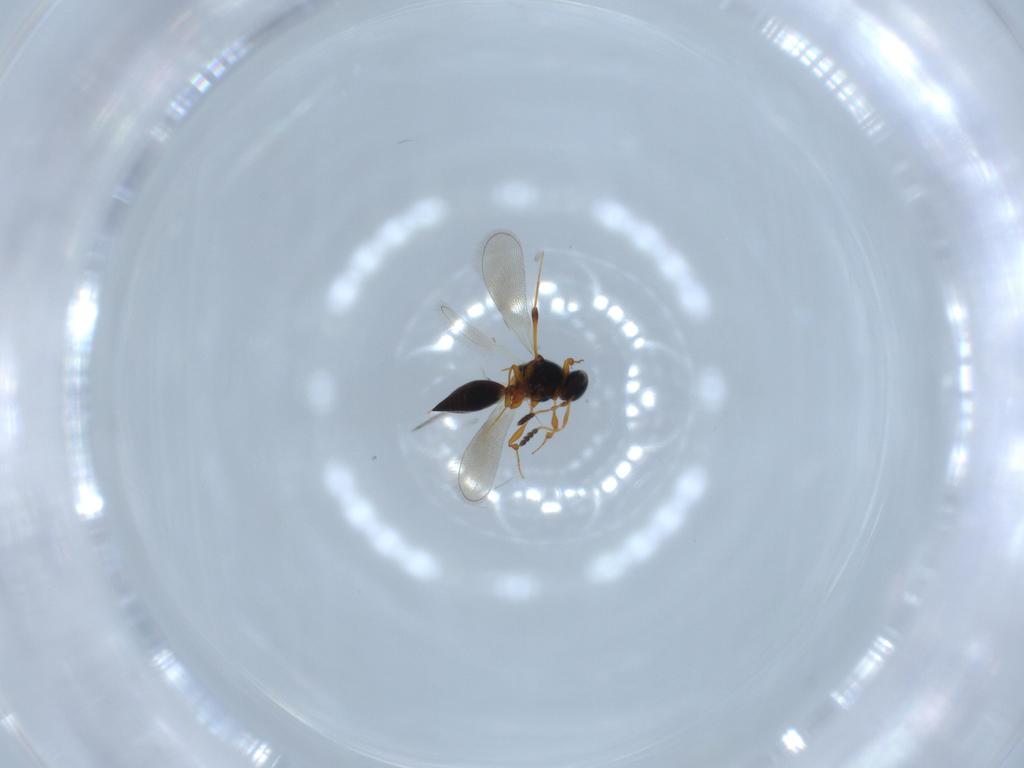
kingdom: Animalia
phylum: Arthropoda
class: Insecta
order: Hymenoptera
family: Platygastridae
